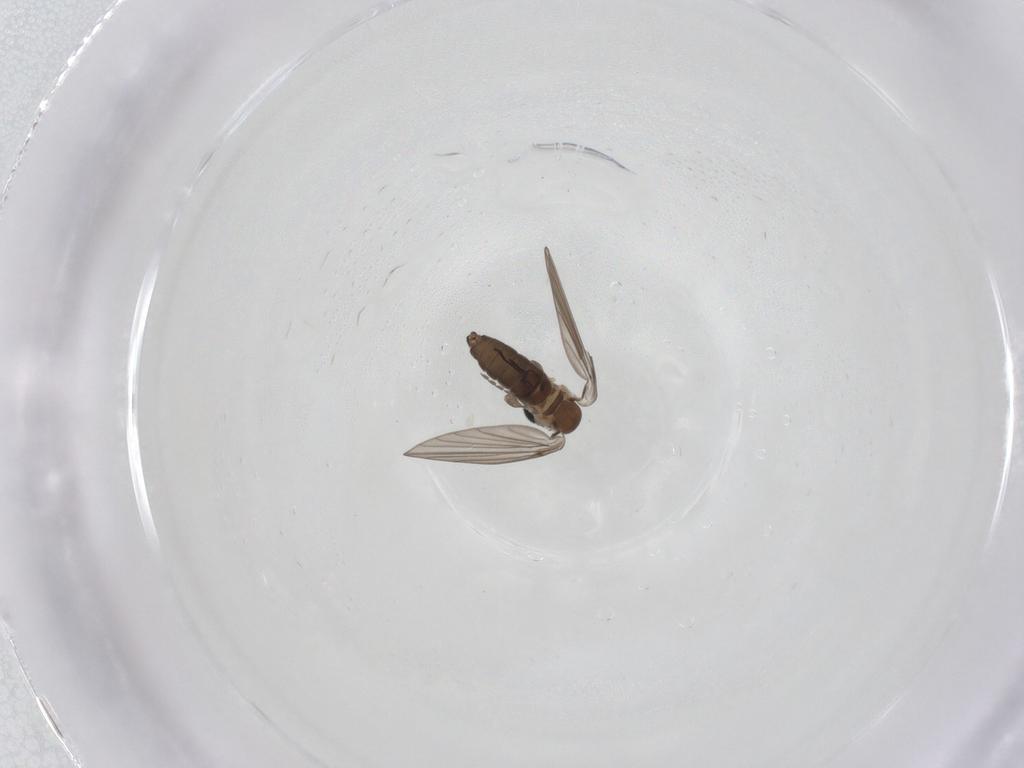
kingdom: Animalia
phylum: Arthropoda
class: Insecta
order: Diptera
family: Psychodidae
